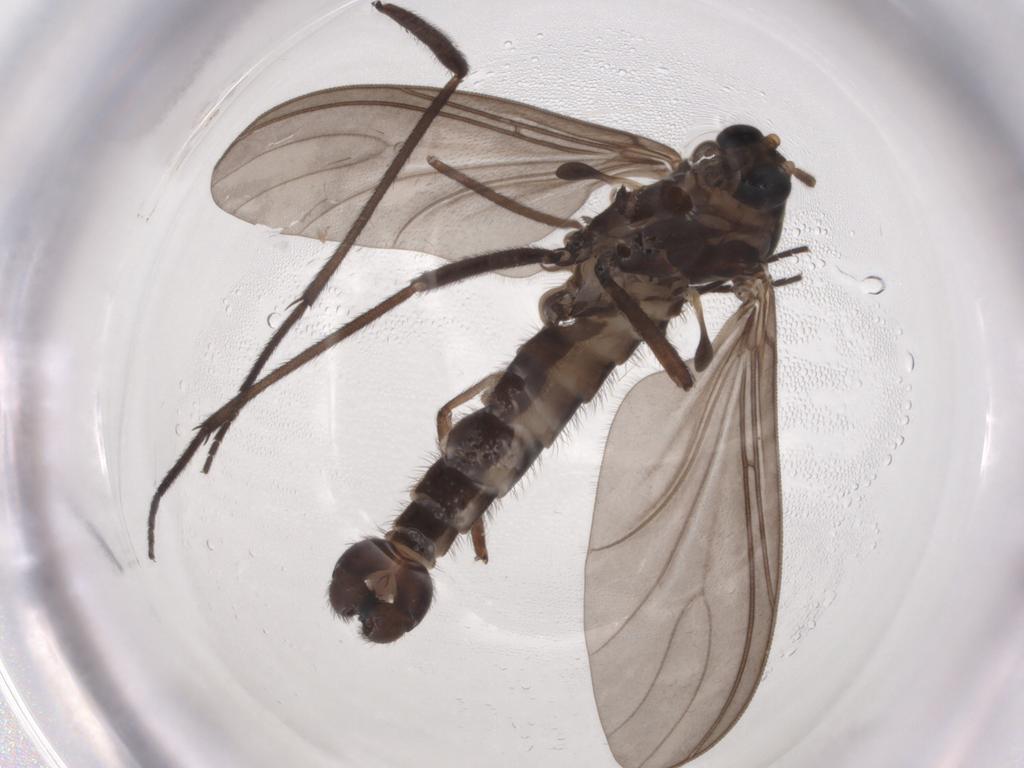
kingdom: Animalia
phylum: Arthropoda
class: Insecta
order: Diptera
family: Sciaridae
